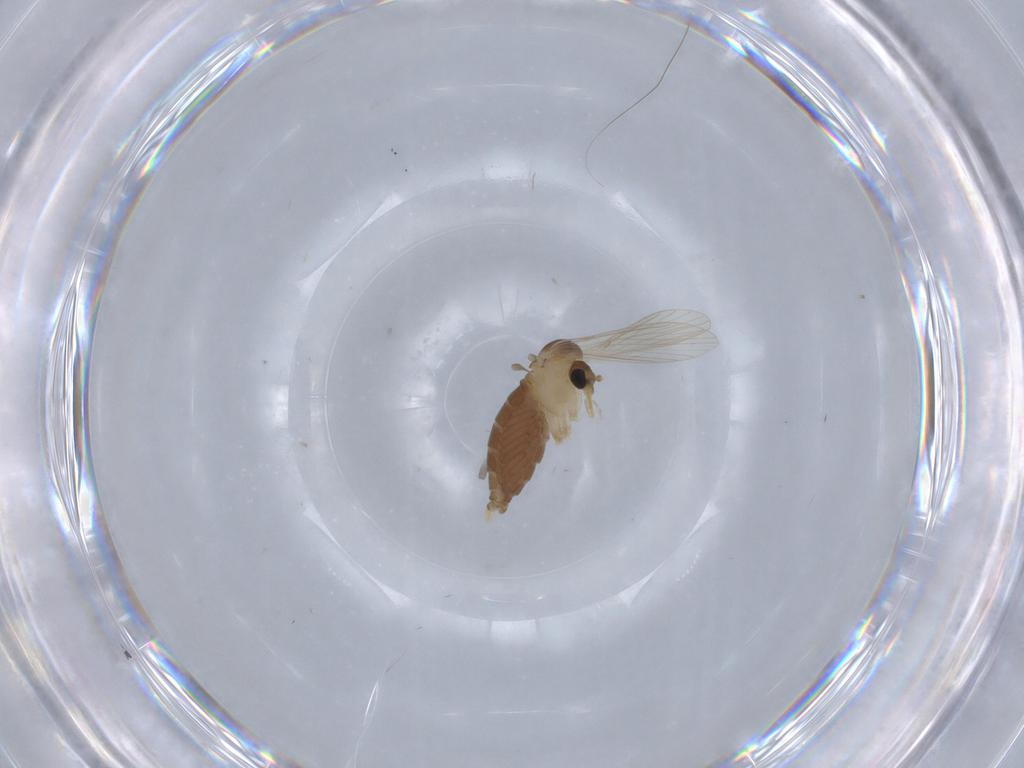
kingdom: Animalia
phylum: Arthropoda
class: Insecta
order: Diptera
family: Psychodidae
